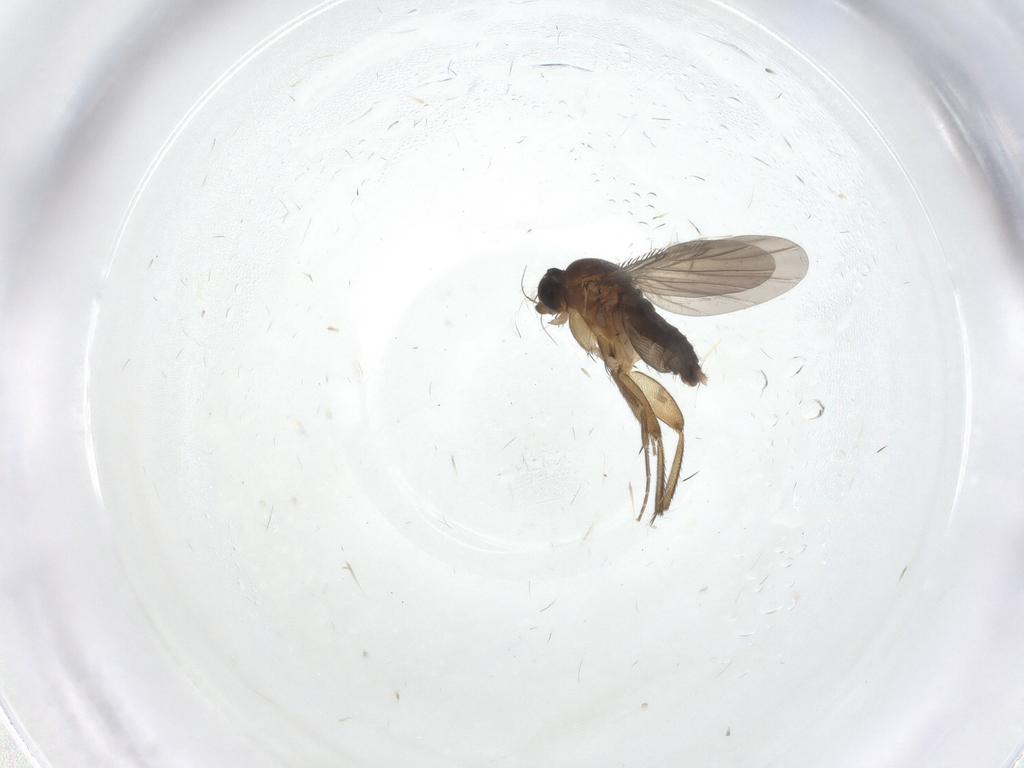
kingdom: Animalia
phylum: Arthropoda
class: Insecta
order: Diptera
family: Phoridae
